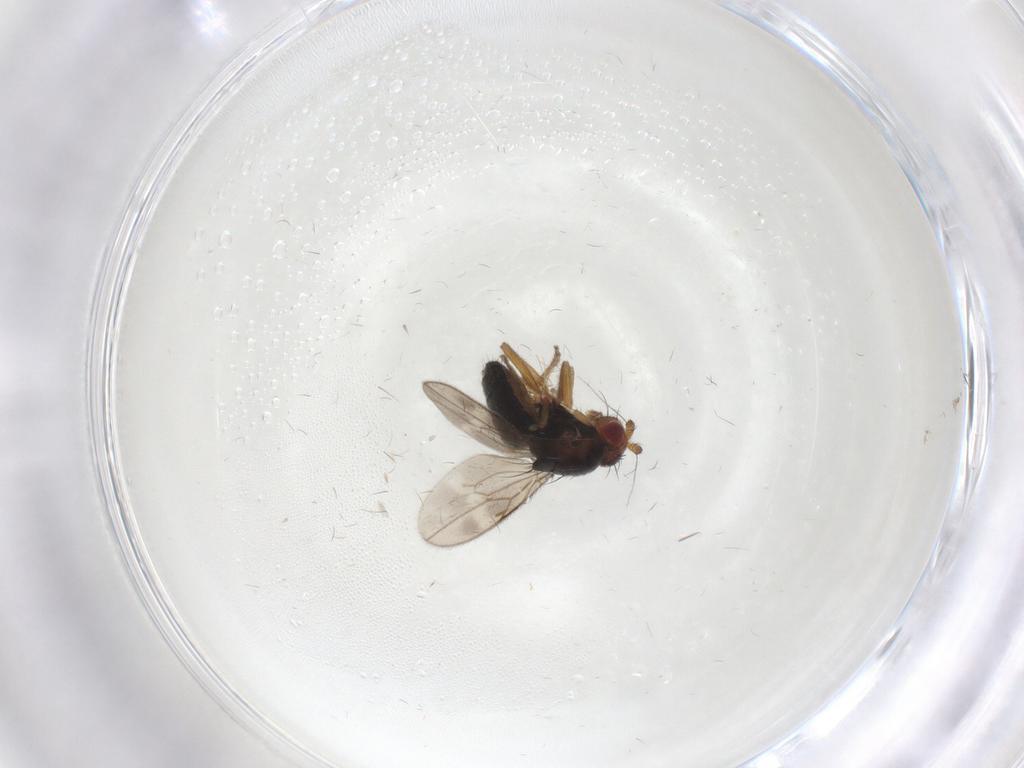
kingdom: Animalia
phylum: Arthropoda
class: Insecta
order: Diptera
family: Sphaeroceridae
